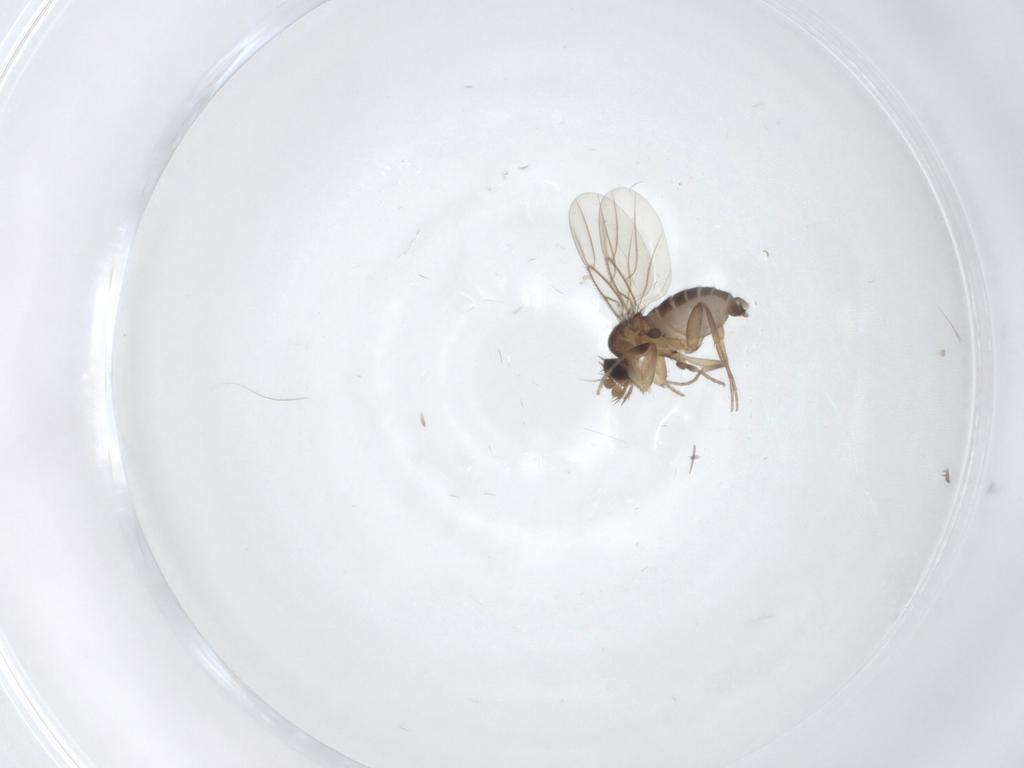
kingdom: Animalia
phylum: Arthropoda
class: Insecta
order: Diptera
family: Phoridae
